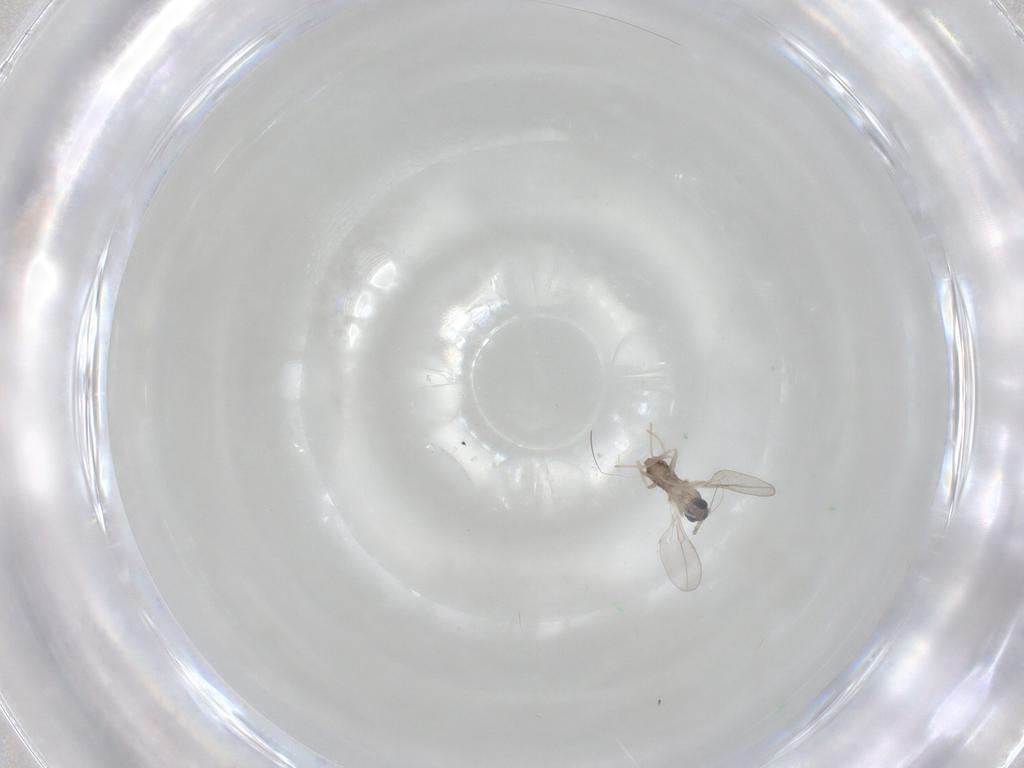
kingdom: Animalia
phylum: Arthropoda
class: Insecta
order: Diptera
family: Cecidomyiidae
